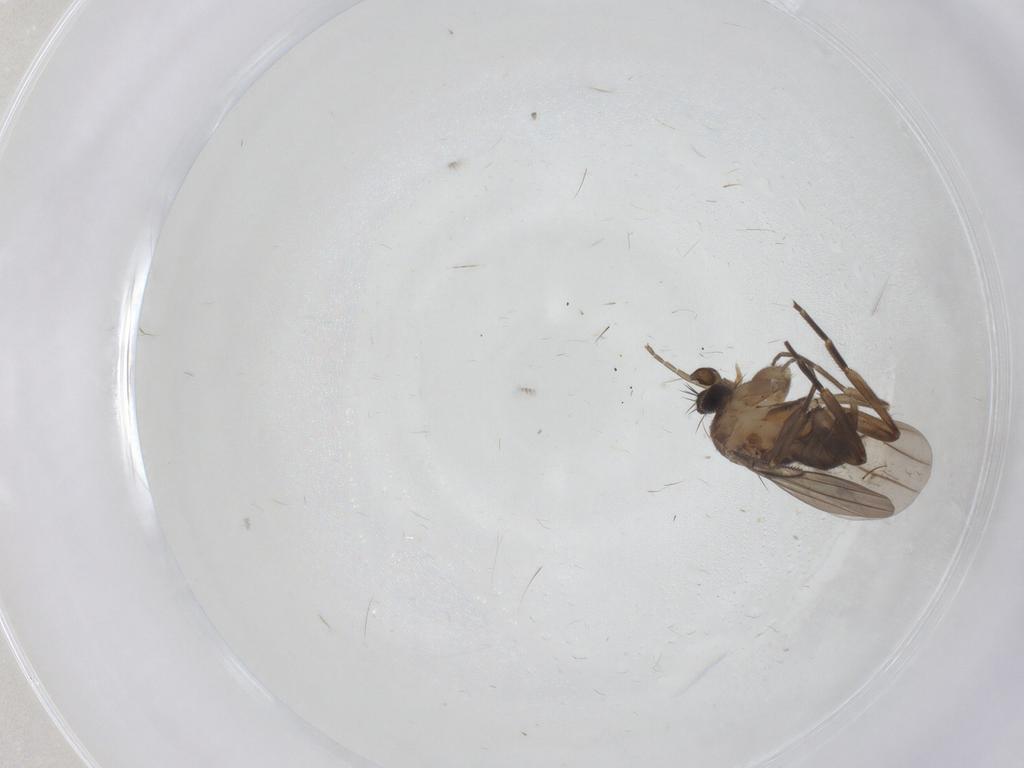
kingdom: Animalia
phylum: Arthropoda
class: Insecta
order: Diptera
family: Phoridae
